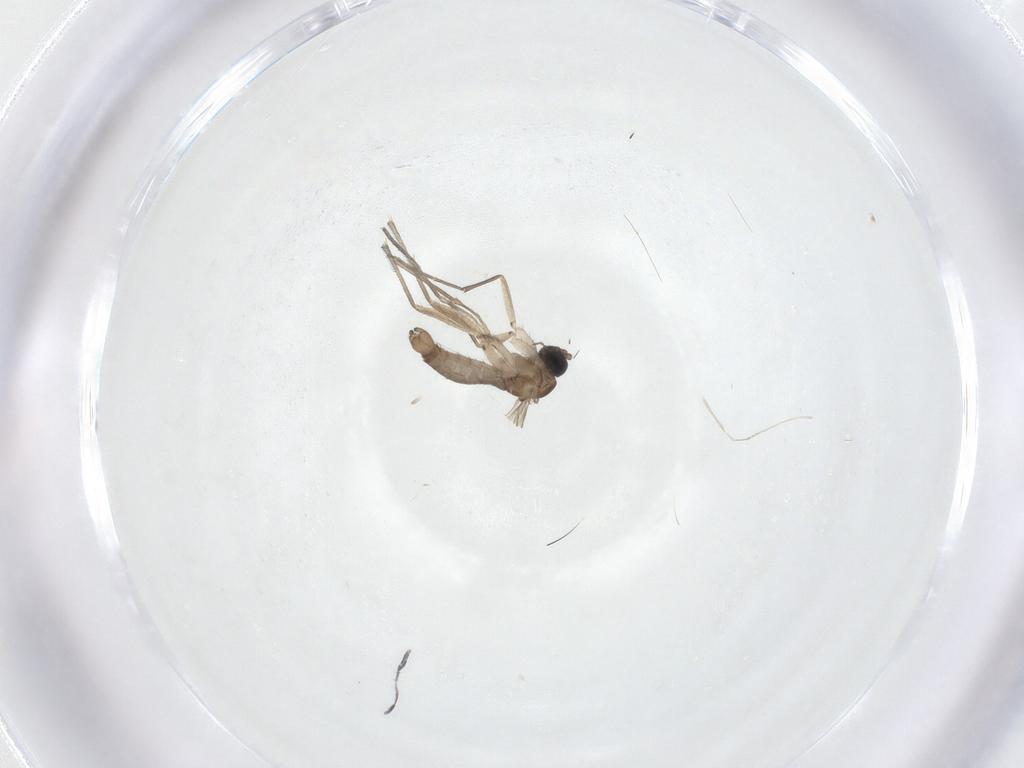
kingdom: Animalia
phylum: Arthropoda
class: Insecta
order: Diptera
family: Sciaridae
